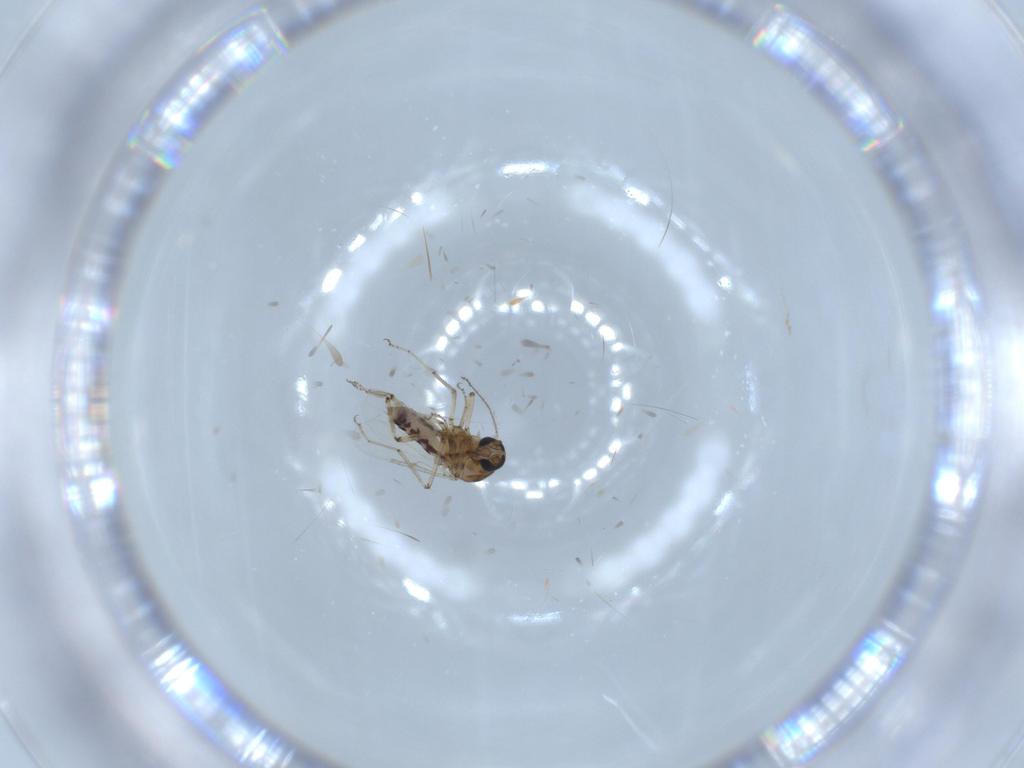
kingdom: Animalia
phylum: Arthropoda
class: Insecta
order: Diptera
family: Ceratopogonidae
